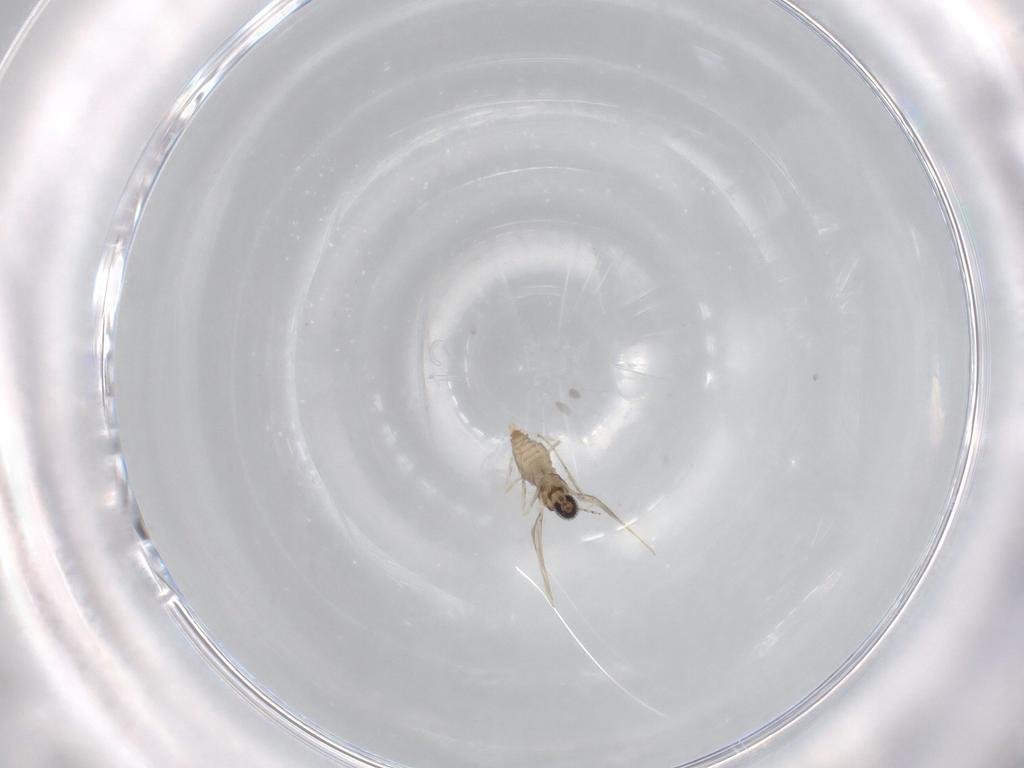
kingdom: Animalia
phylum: Arthropoda
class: Insecta
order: Diptera
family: Cecidomyiidae
